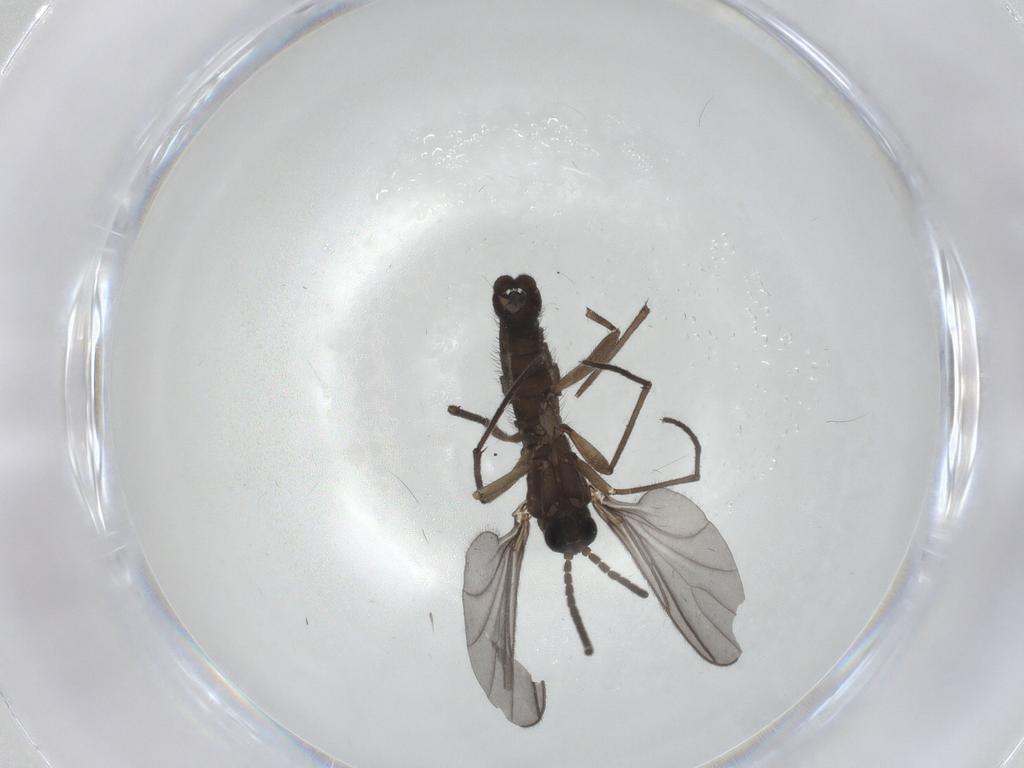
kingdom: Animalia
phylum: Arthropoda
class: Insecta
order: Diptera
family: Sciaridae
